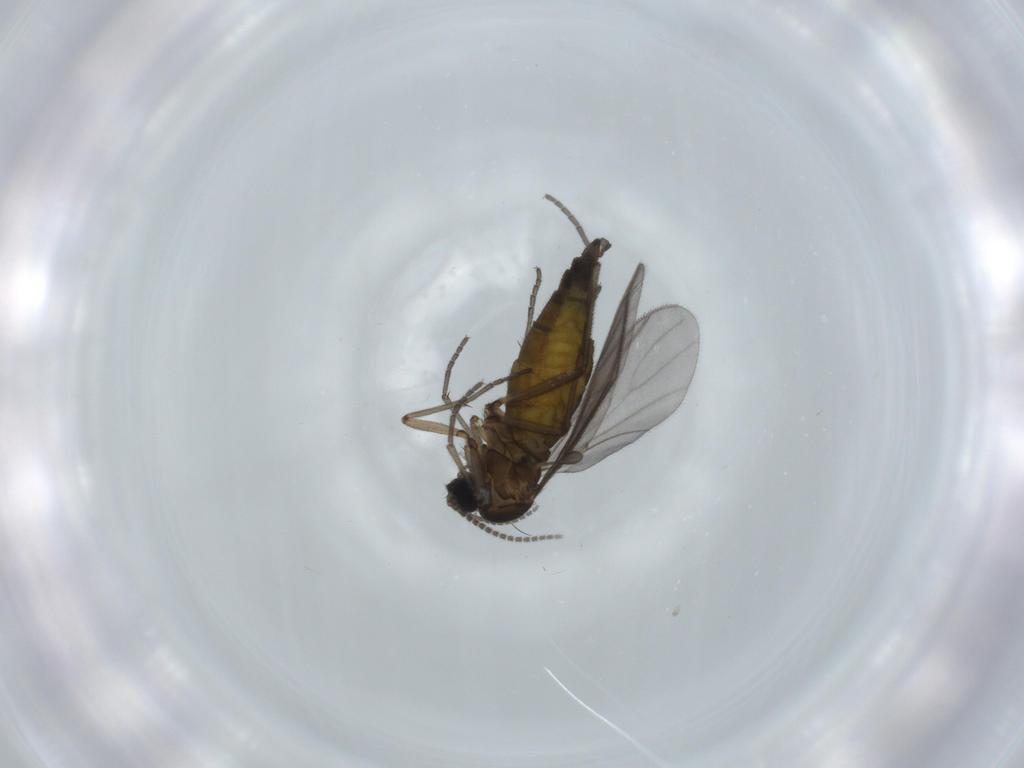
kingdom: Animalia
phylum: Arthropoda
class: Insecta
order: Diptera
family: Sciaridae
